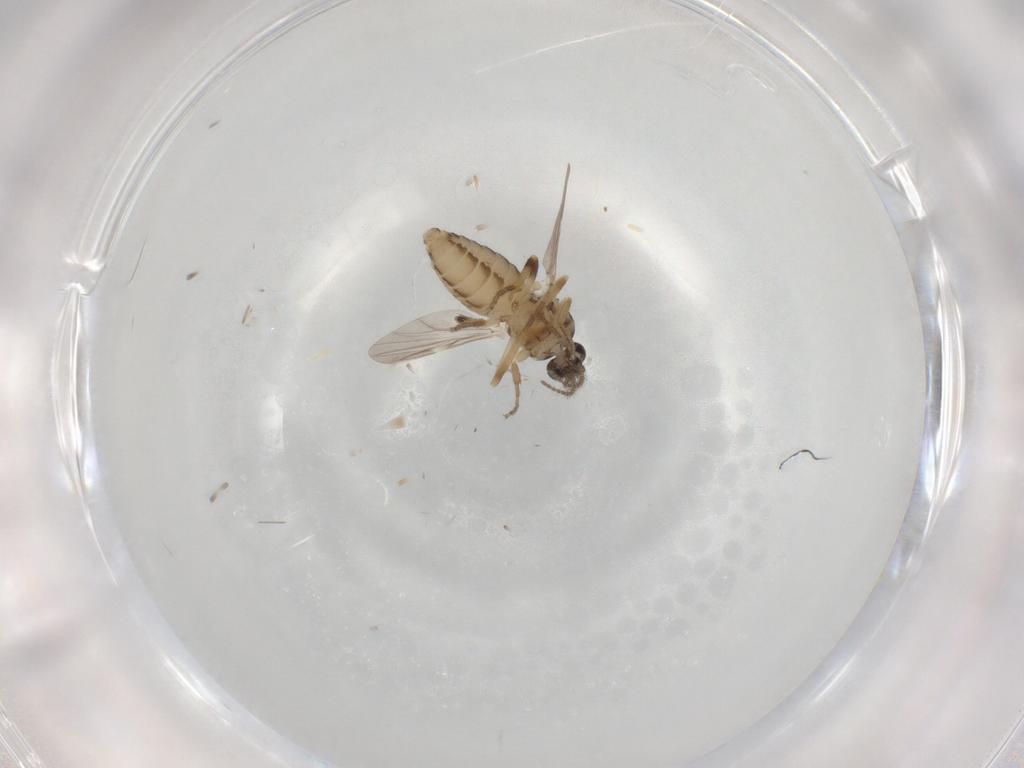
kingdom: Animalia
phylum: Arthropoda
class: Insecta
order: Diptera
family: Ceratopogonidae
